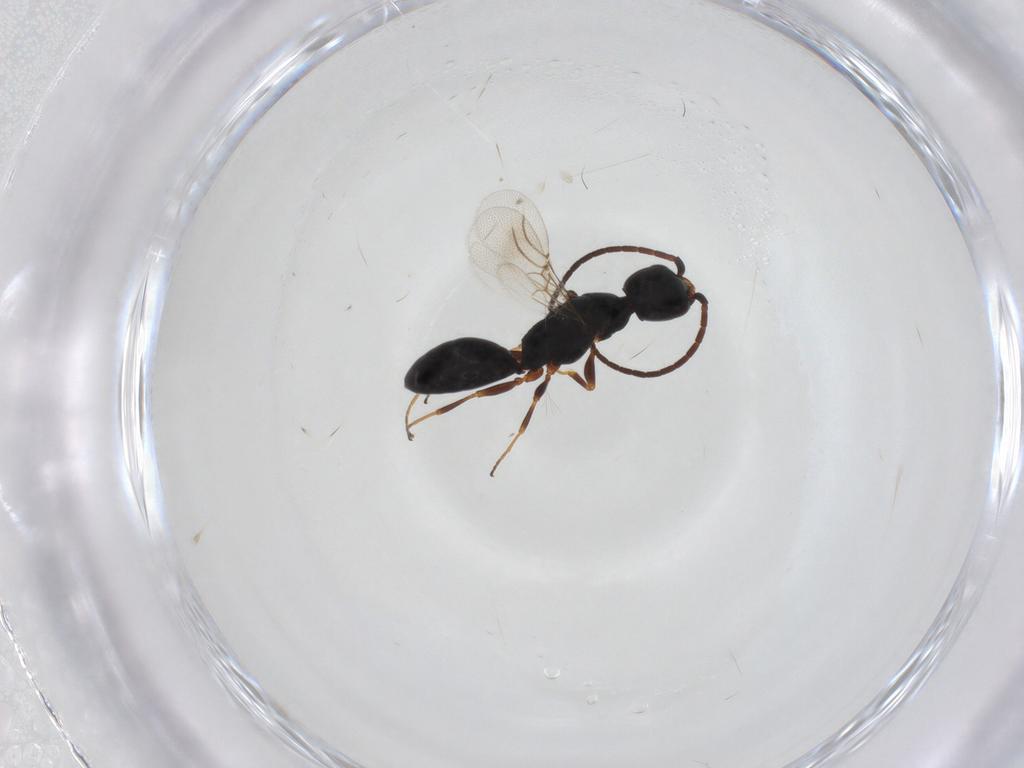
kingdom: Animalia
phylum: Arthropoda
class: Insecta
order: Hymenoptera
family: Bethylidae
